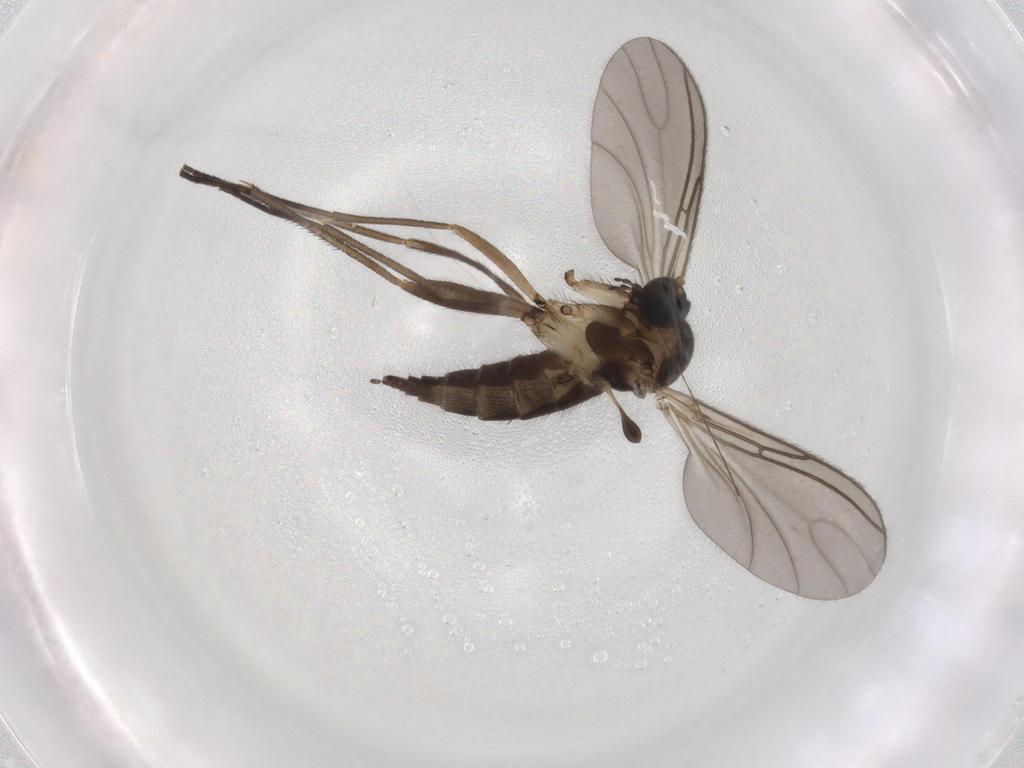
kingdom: Animalia
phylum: Arthropoda
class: Insecta
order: Diptera
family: Sciaridae
